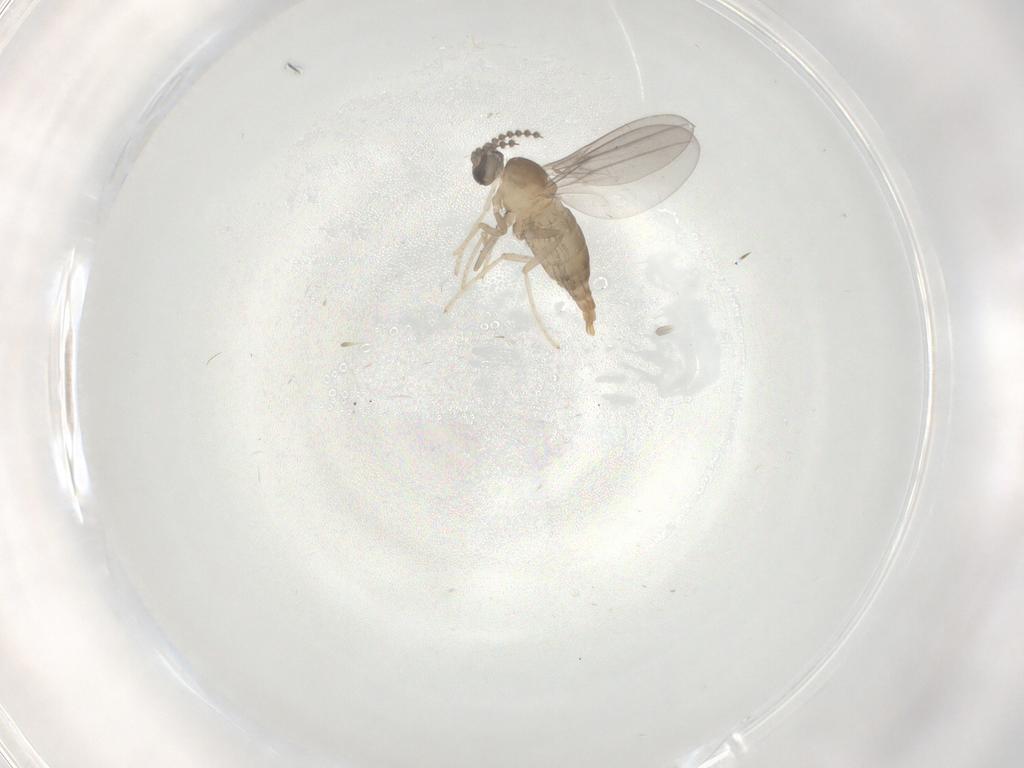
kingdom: Animalia
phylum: Arthropoda
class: Insecta
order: Diptera
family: Cecidomyiidae
